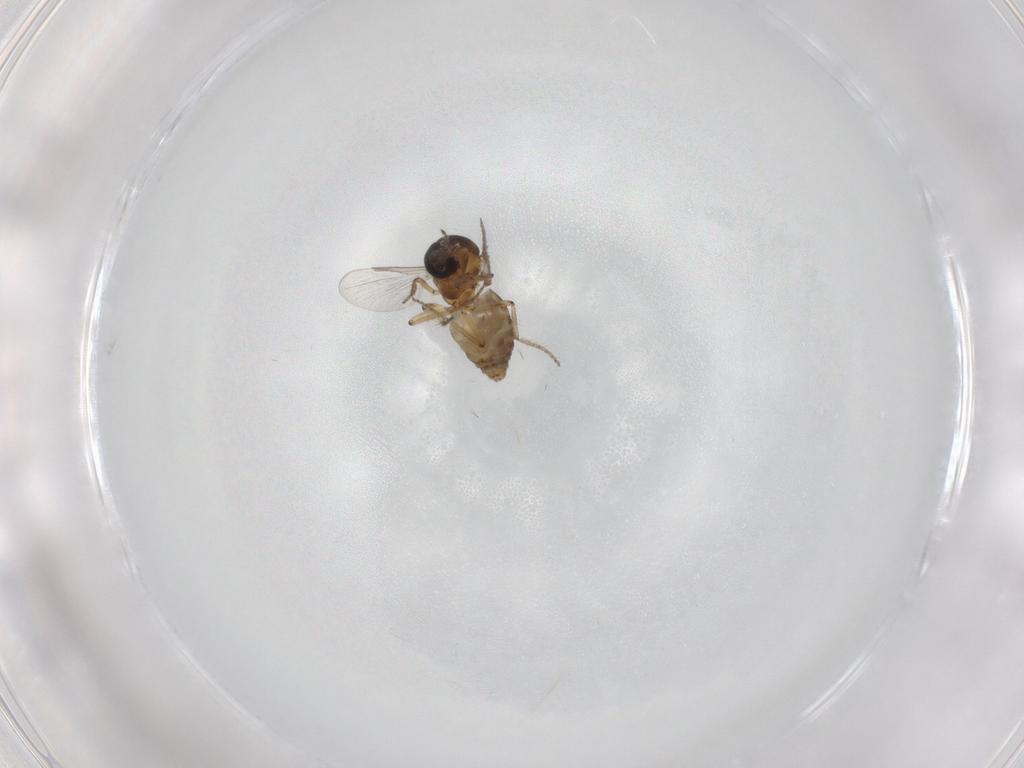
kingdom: Animalia
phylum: Arthropoda
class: Insecta
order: Diptera
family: Ceratopogonidae
